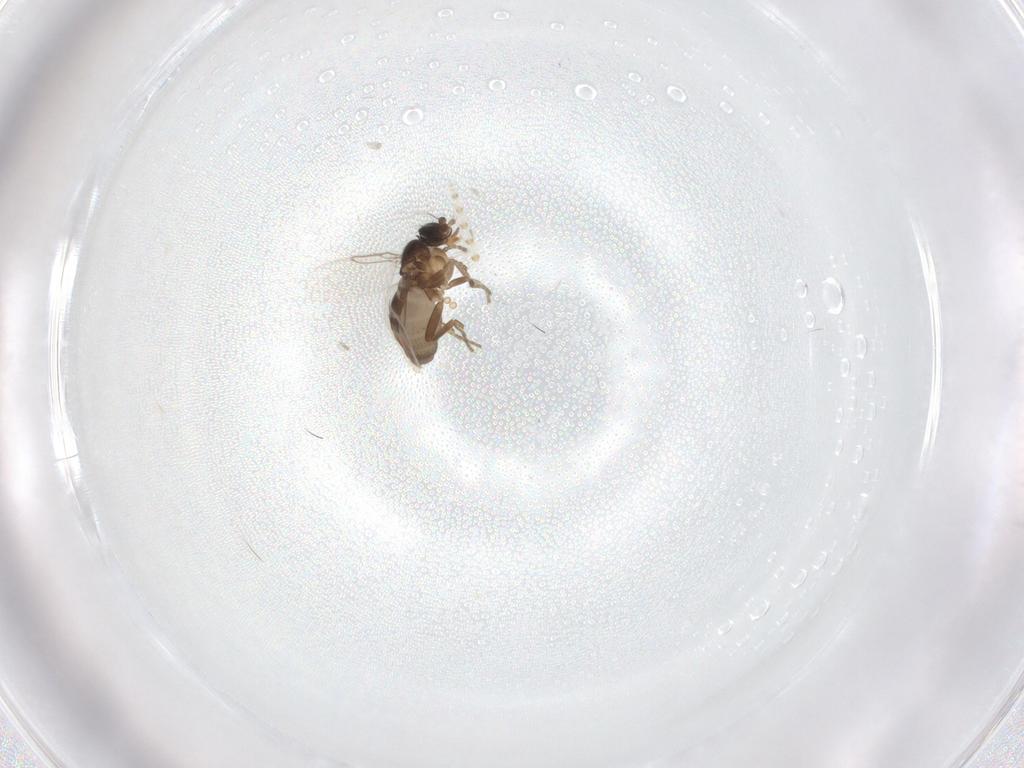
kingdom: Animalia
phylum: Arthropoda
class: Insecta
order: Diptera
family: Psychodidae
